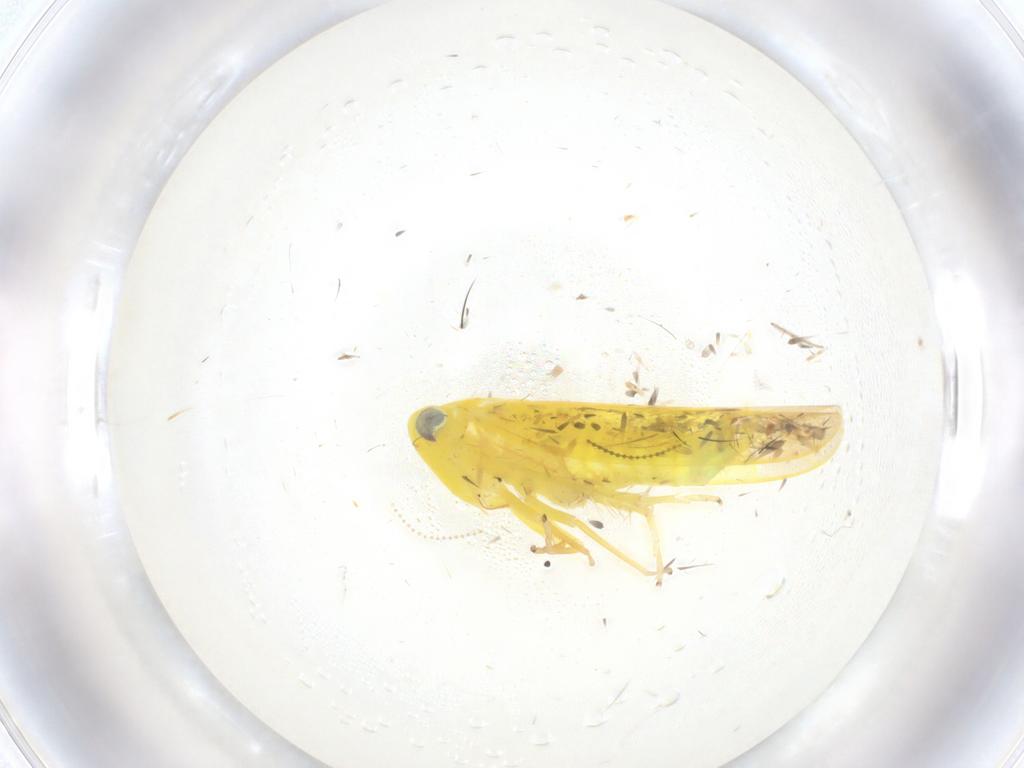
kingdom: Animalia
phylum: Arthropoda
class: Insecta
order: Hemiptera
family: Cicadellidae
